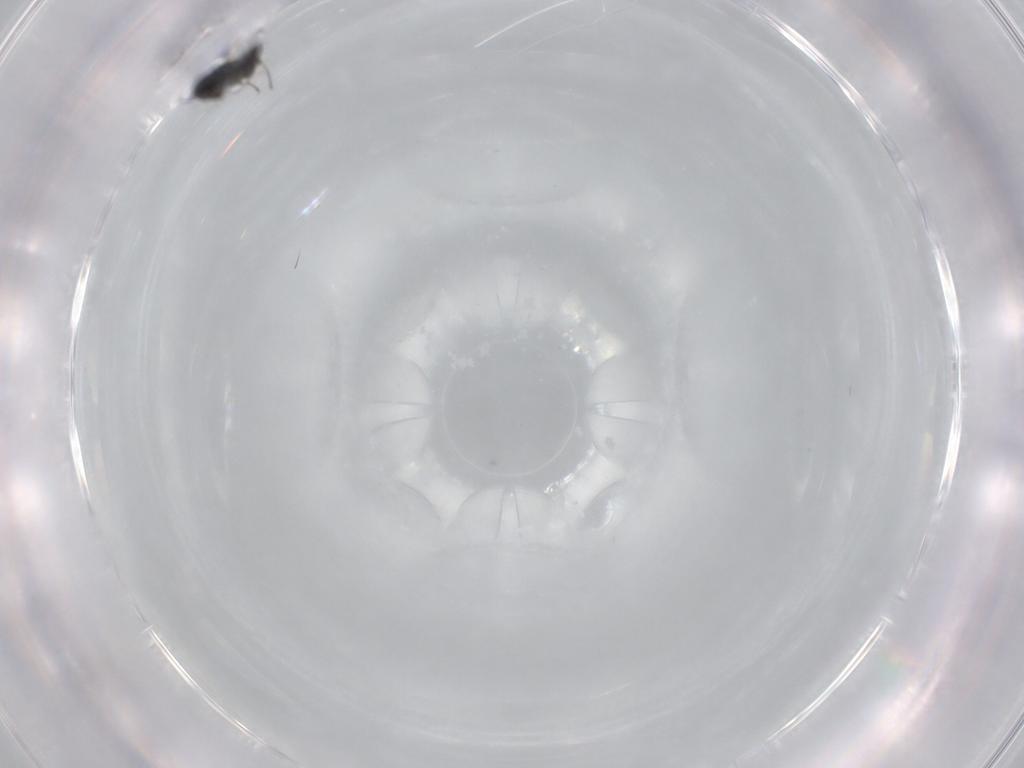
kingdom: Animalia
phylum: Arthropoda
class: Insecta
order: Hymenoptera
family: Scelionidae
